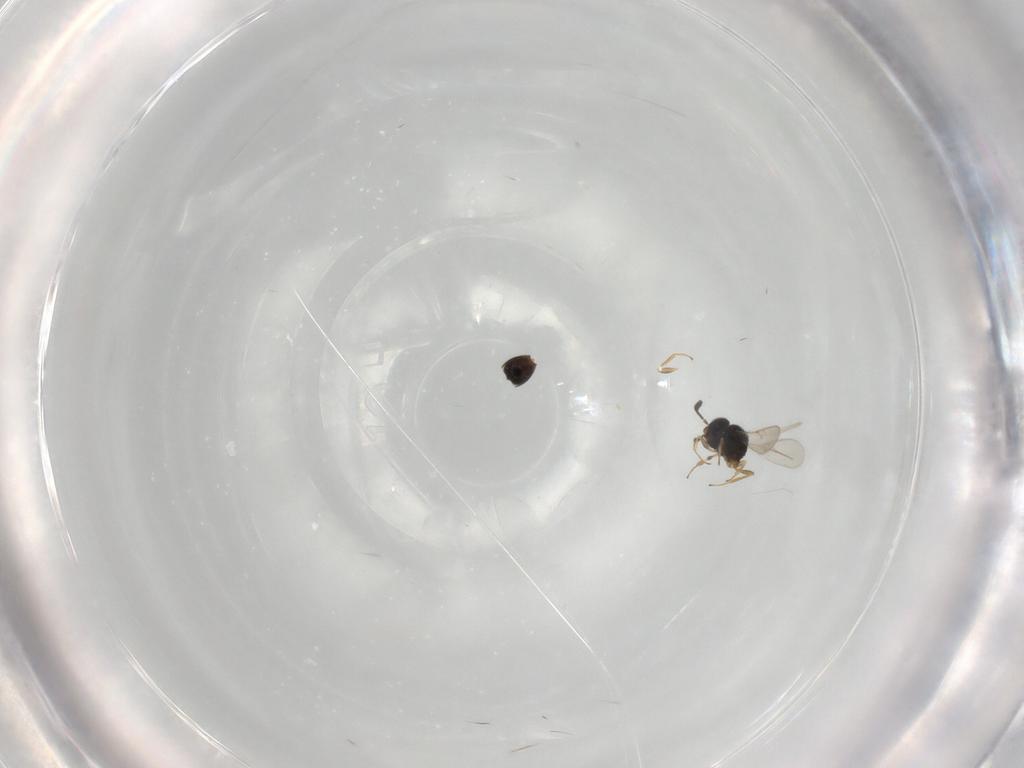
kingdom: Animalia
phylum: Arthropoda
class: Insecta
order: Hymenoptera
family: Scelionidae
